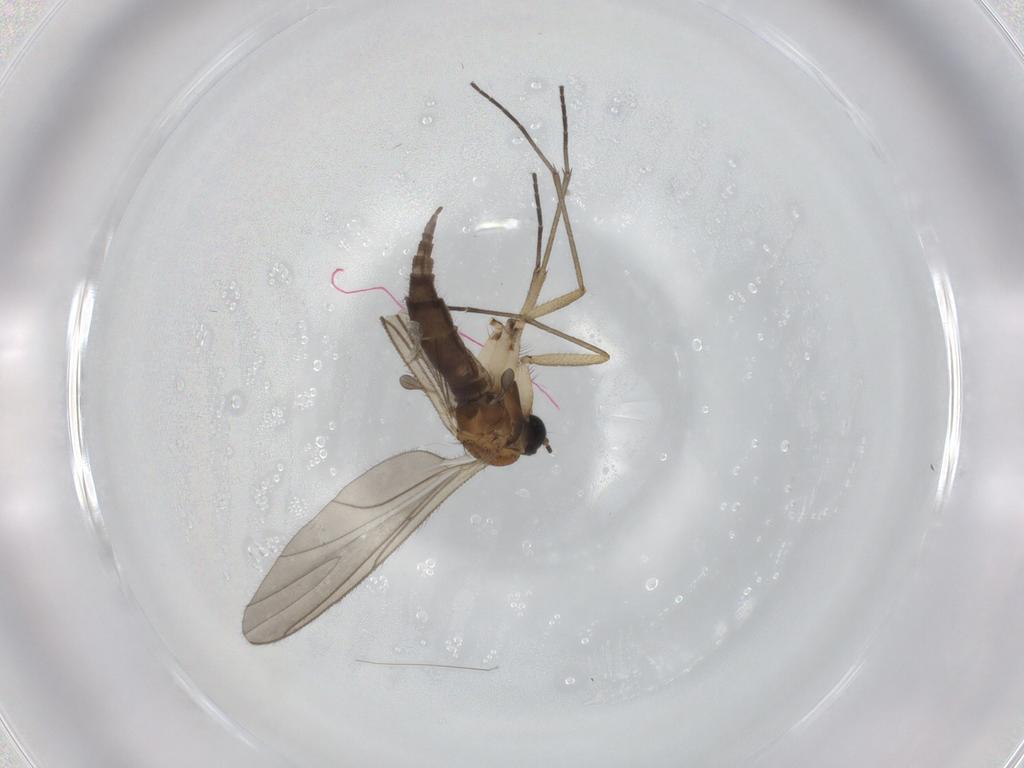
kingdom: Animalia
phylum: Arthropoda
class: Insecta
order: Diptera
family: Sciaridae
